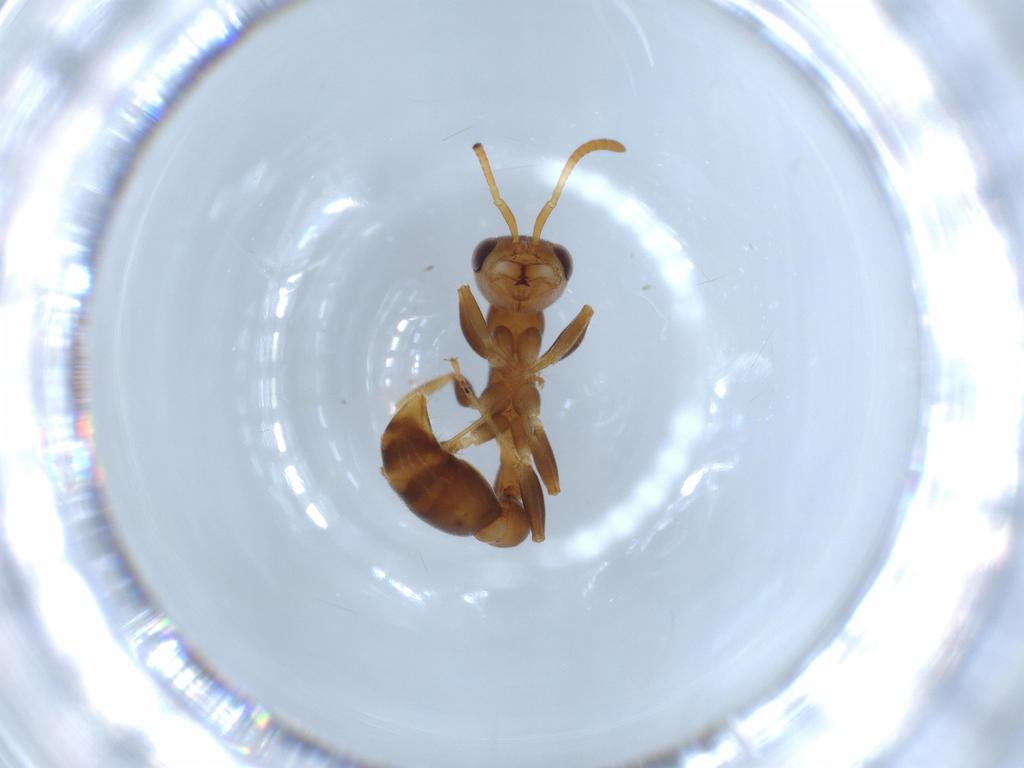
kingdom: Animalia
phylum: Arthropoda
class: Insecta
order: Hymenoptera
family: Formicidae
